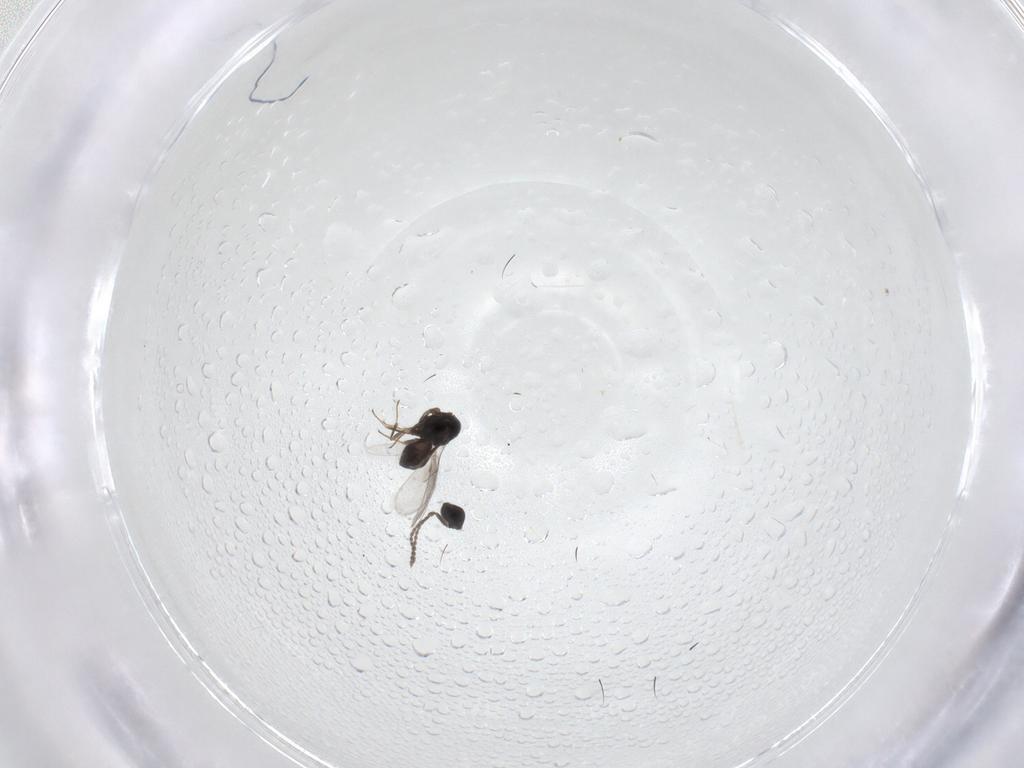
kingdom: Animalia
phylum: Arthropoda
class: Insecta
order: Hymenoptera
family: Scelionidae
